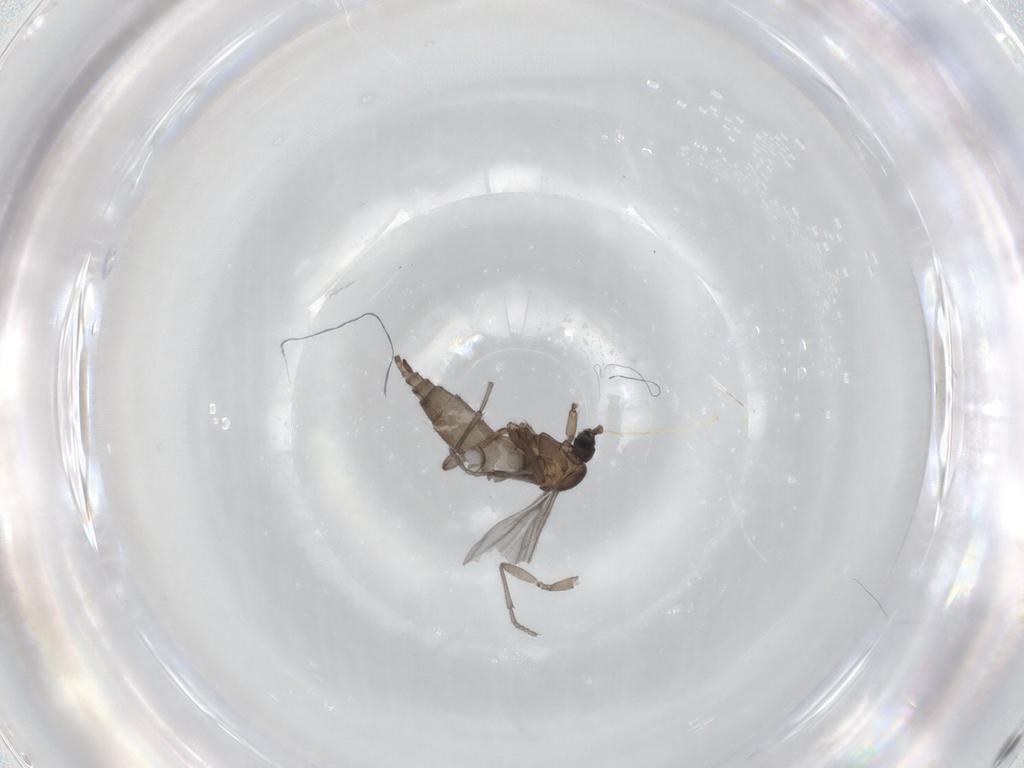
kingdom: Animalia
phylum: Arthropoda
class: Insecta
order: Diptera
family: Sciaridae
